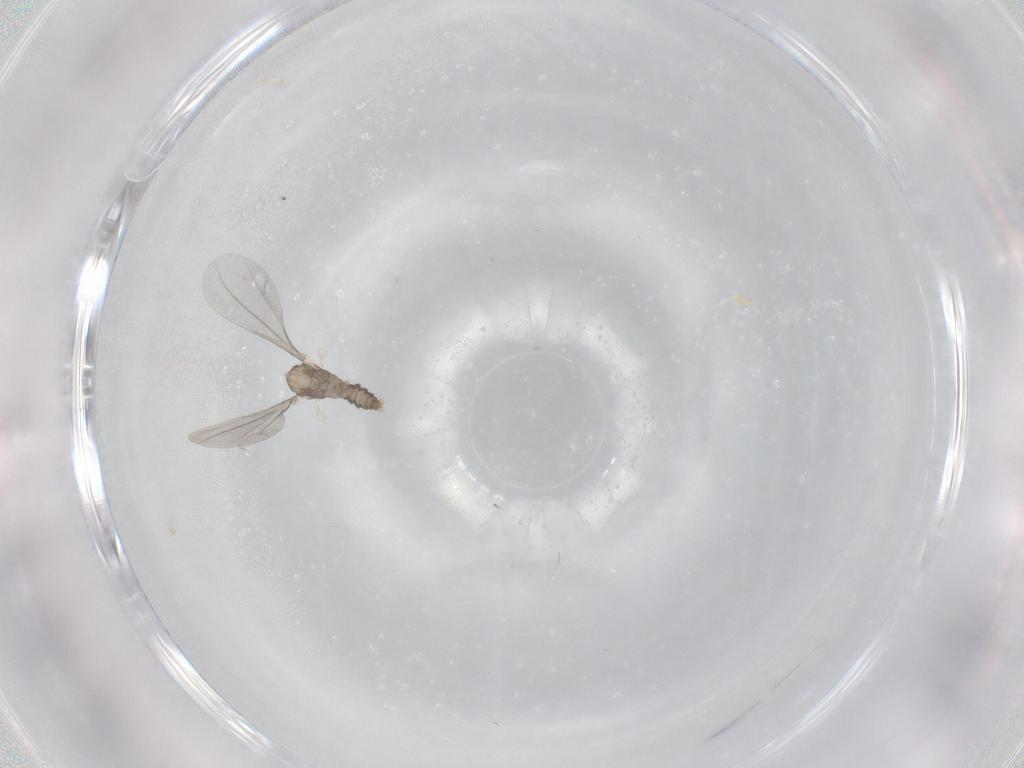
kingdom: Animalia
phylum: Arthropoda
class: Insecta
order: Diptera
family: Cecidomyiidae
